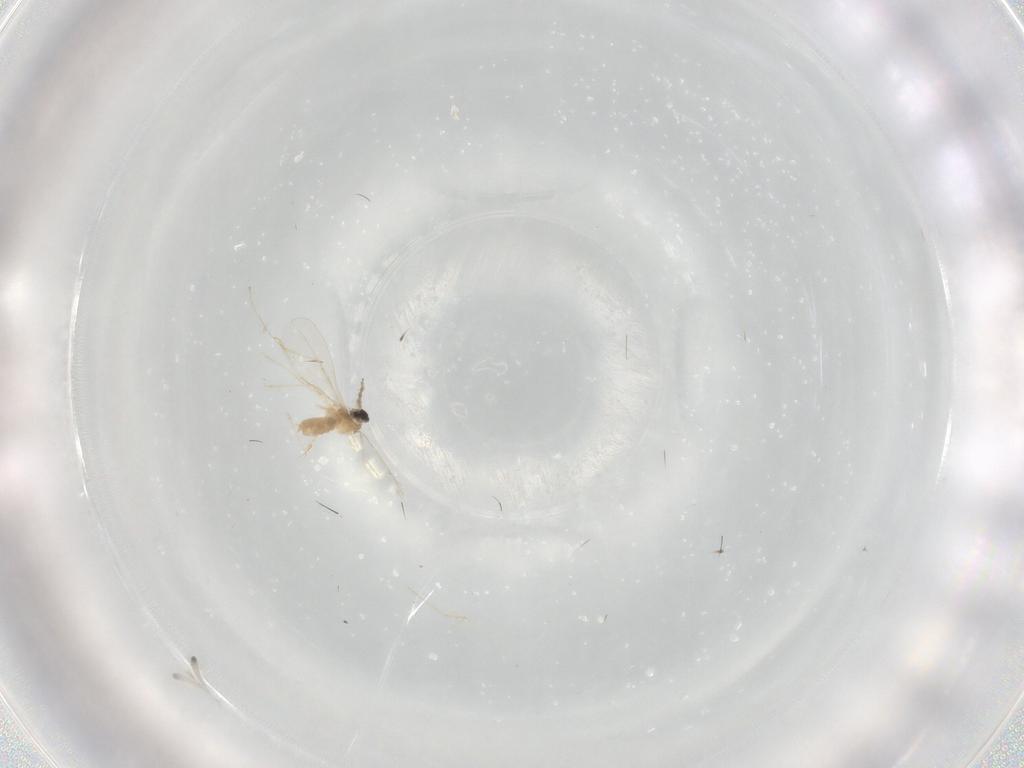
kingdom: Animalia
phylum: Arthropoda
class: Insecta
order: Diptera
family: Cecidomyiidae
